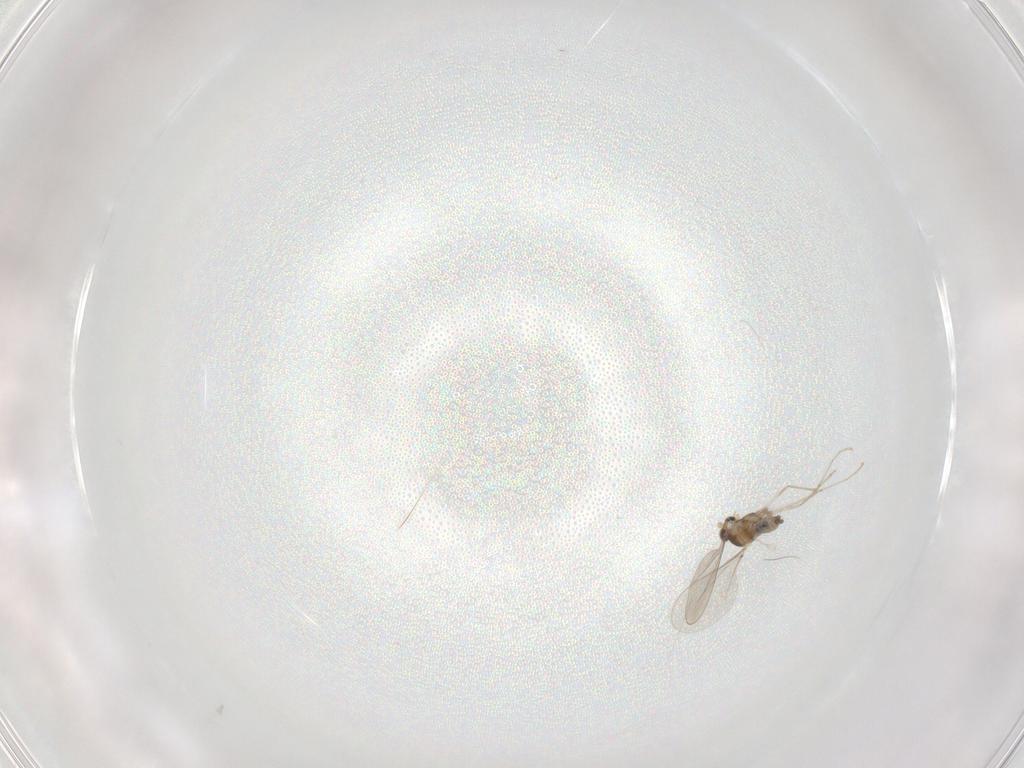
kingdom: Animalia
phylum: Arthropoda
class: Insecta
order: Diptera
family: Cecidomyiidae
